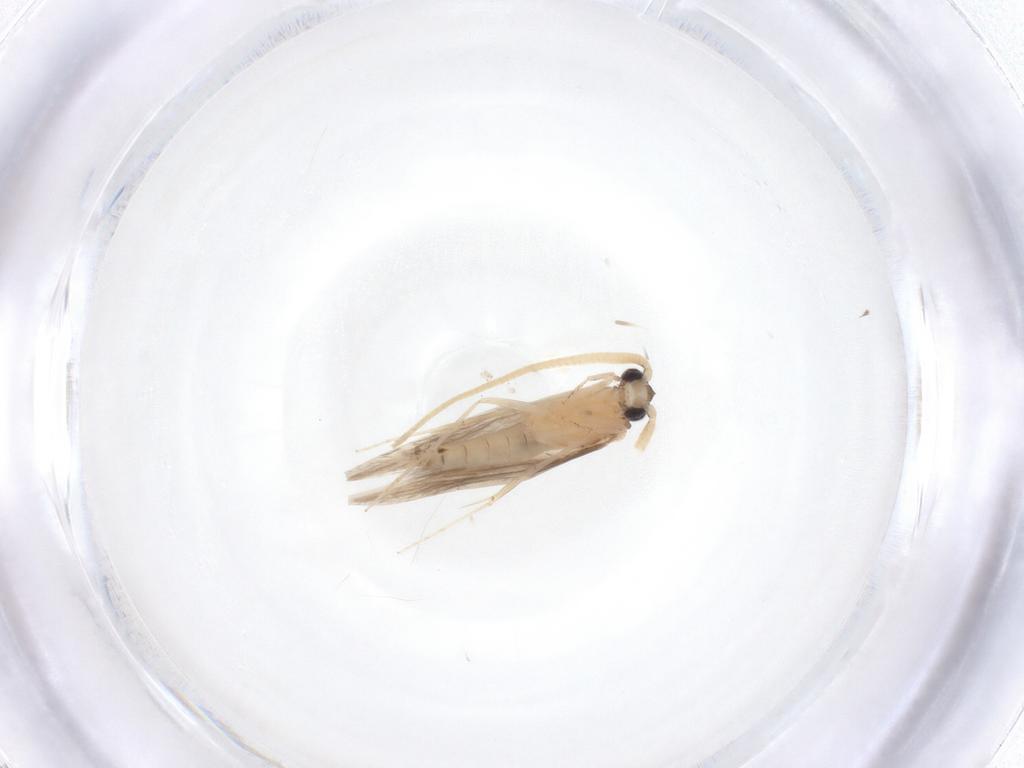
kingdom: Animalia
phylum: Arthropoda
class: Insecta
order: Trichoptera
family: Hydroptilidae
